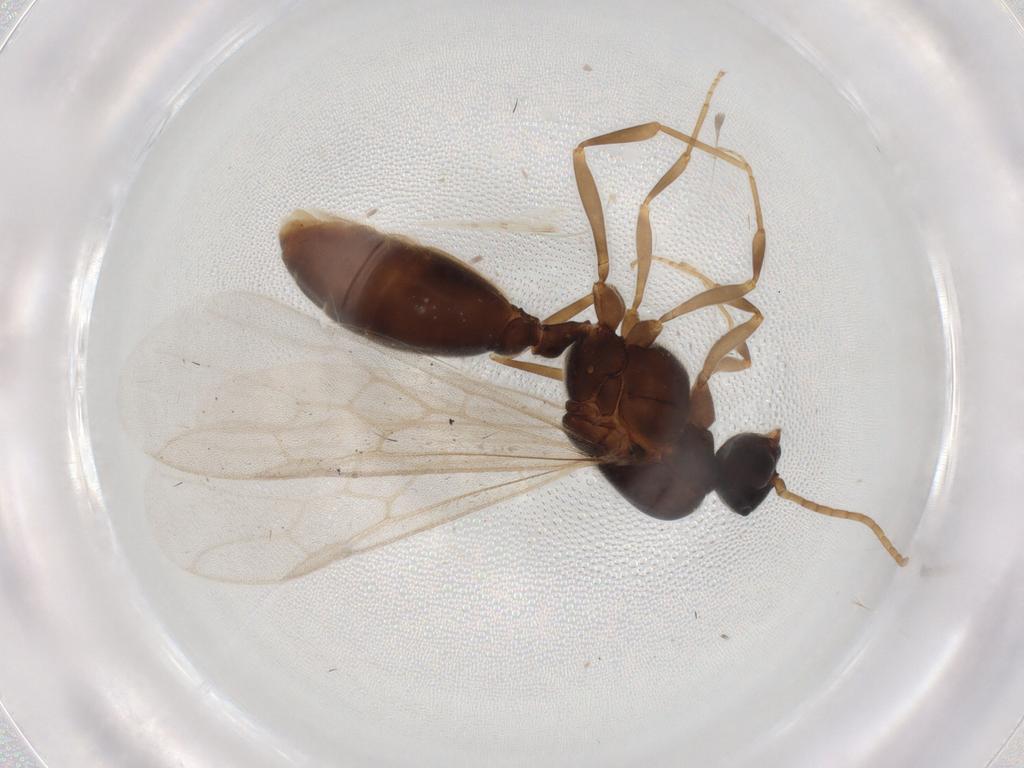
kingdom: Animalia
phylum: Arthropoda
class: Insecta
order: Hymenoptera
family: Formicidae
